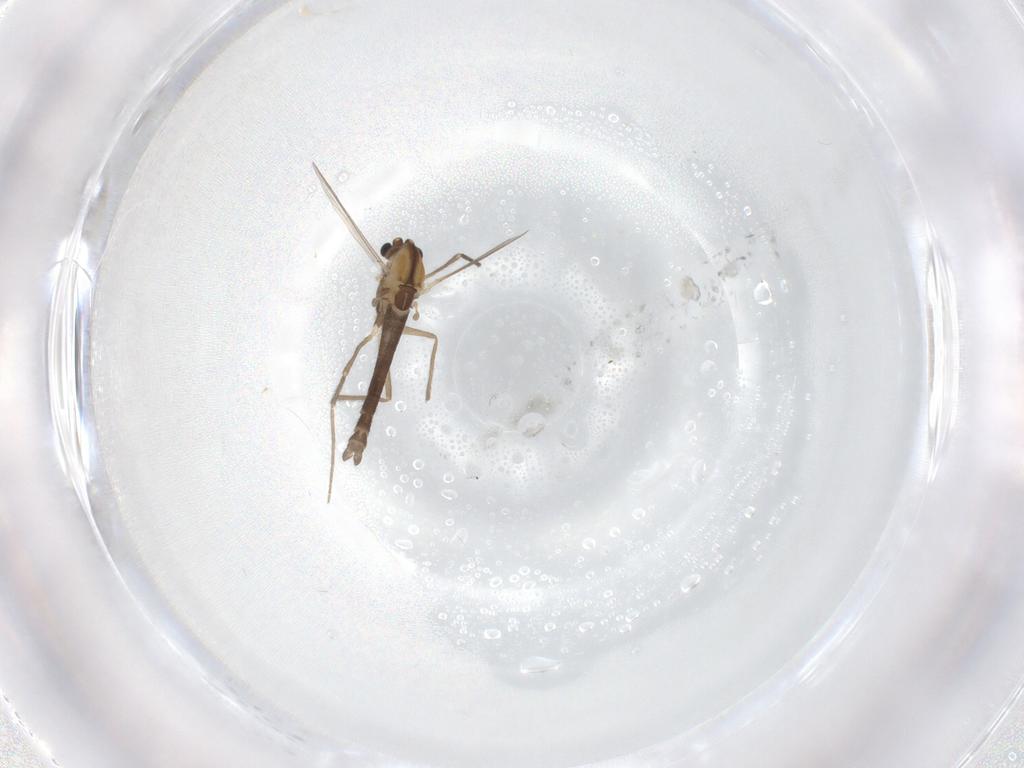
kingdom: Animalia
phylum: Arthropoda
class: Insecta
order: Diptera
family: Chironomidae
